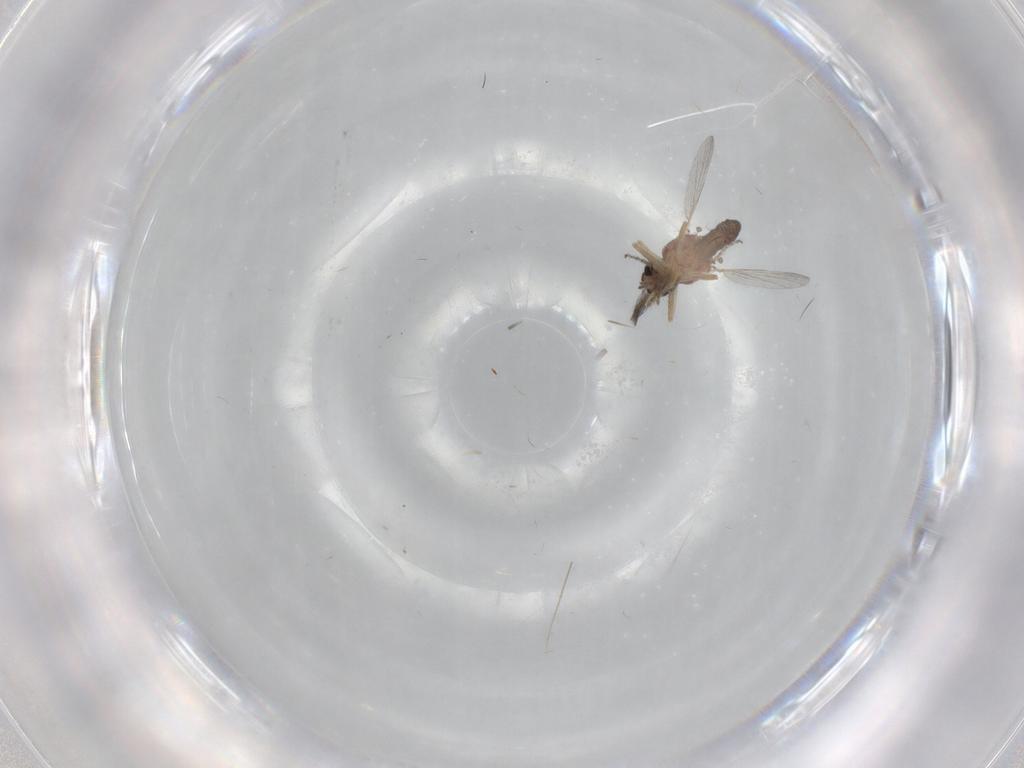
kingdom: Animalia
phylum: Arthropoda
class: Insecta
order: Diptera
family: Ceratopogonidae
